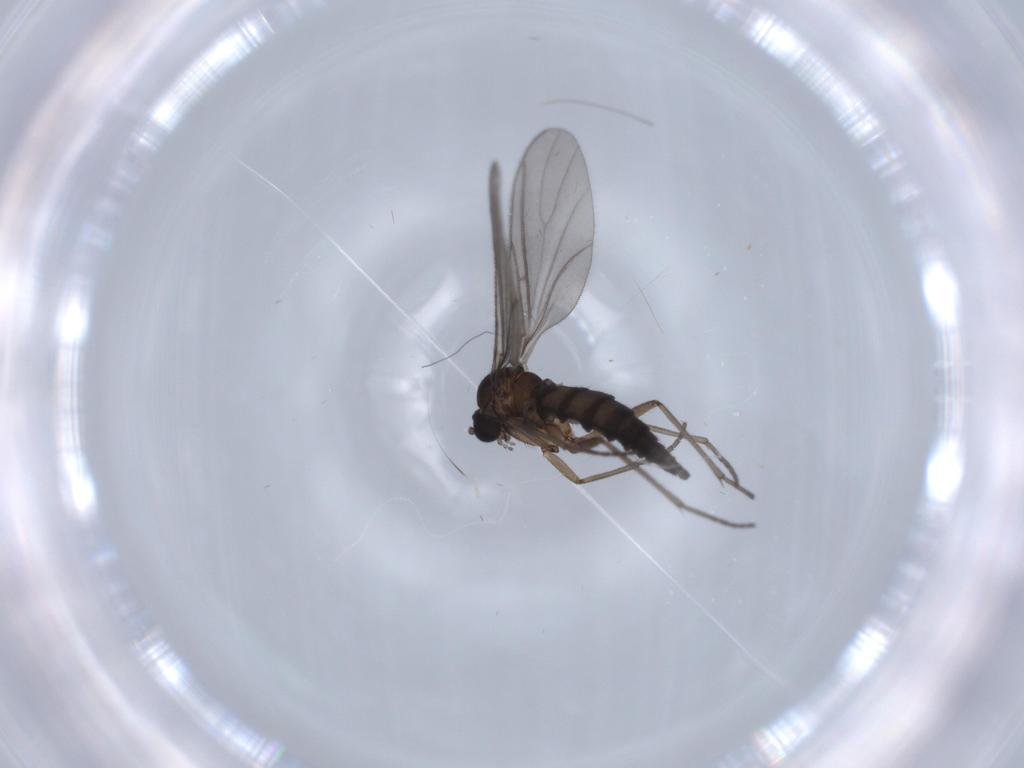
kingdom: Animalia
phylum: Arthropoda
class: Insecta
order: Diptera
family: Sciaridae
